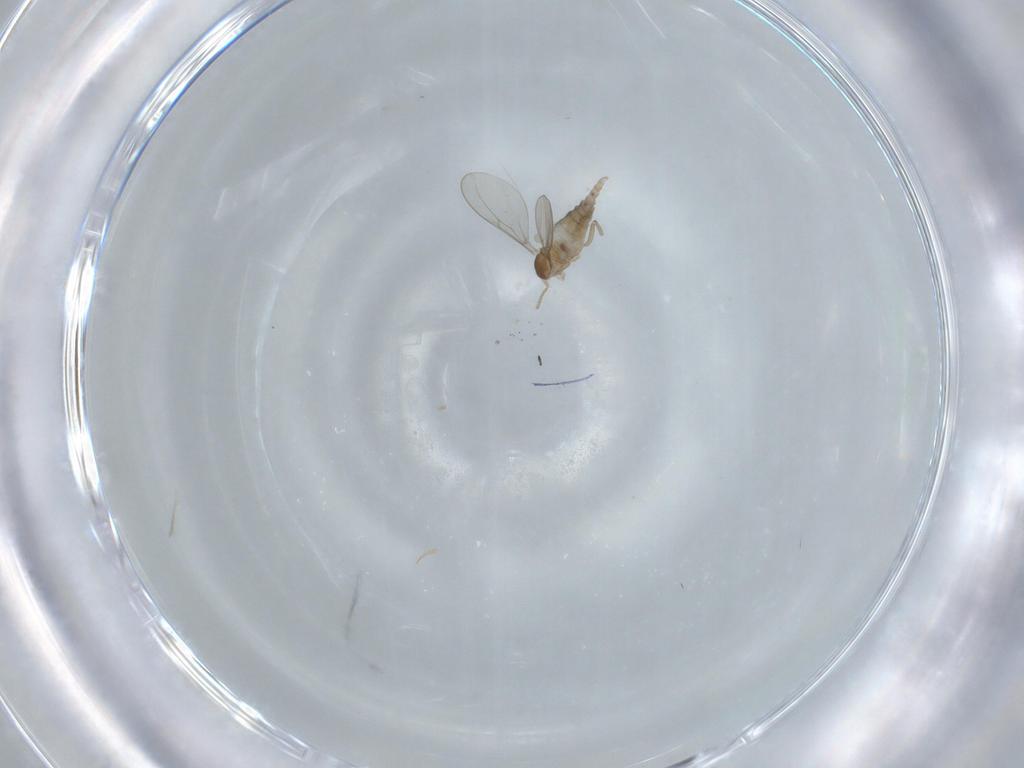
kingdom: Animalia
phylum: Arthropoda
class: Insecta
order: Diptera
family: Cecidomyiidae
